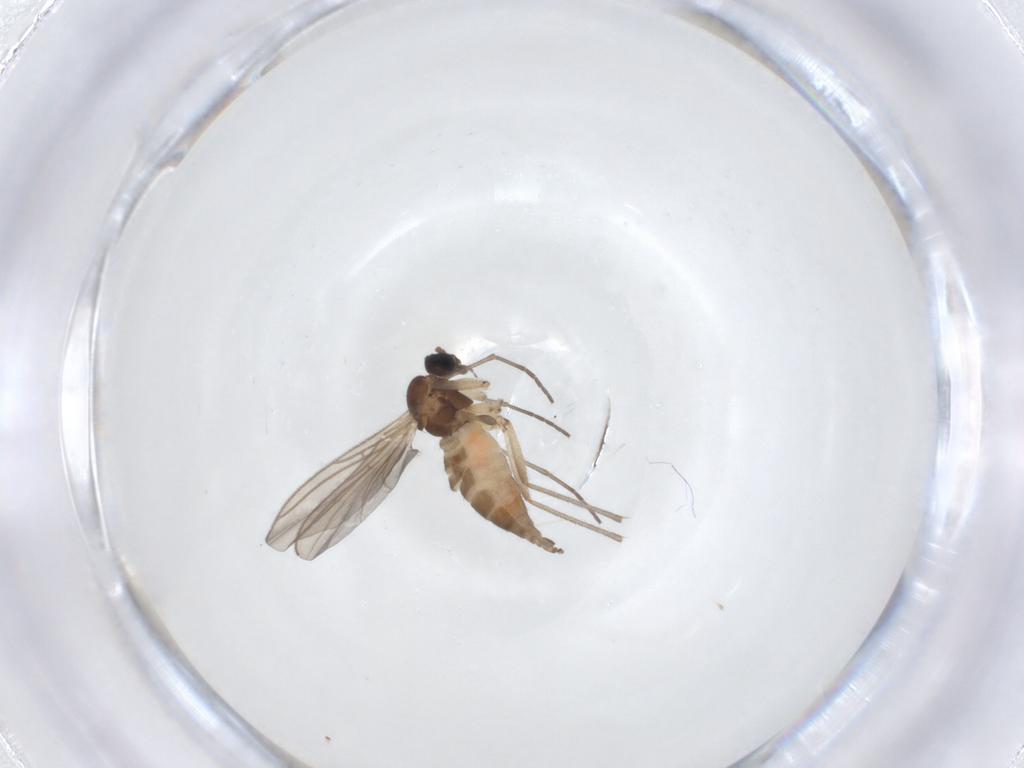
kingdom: Animalia
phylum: Arthropoda
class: Insecta
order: Diptera
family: Sciaridae
